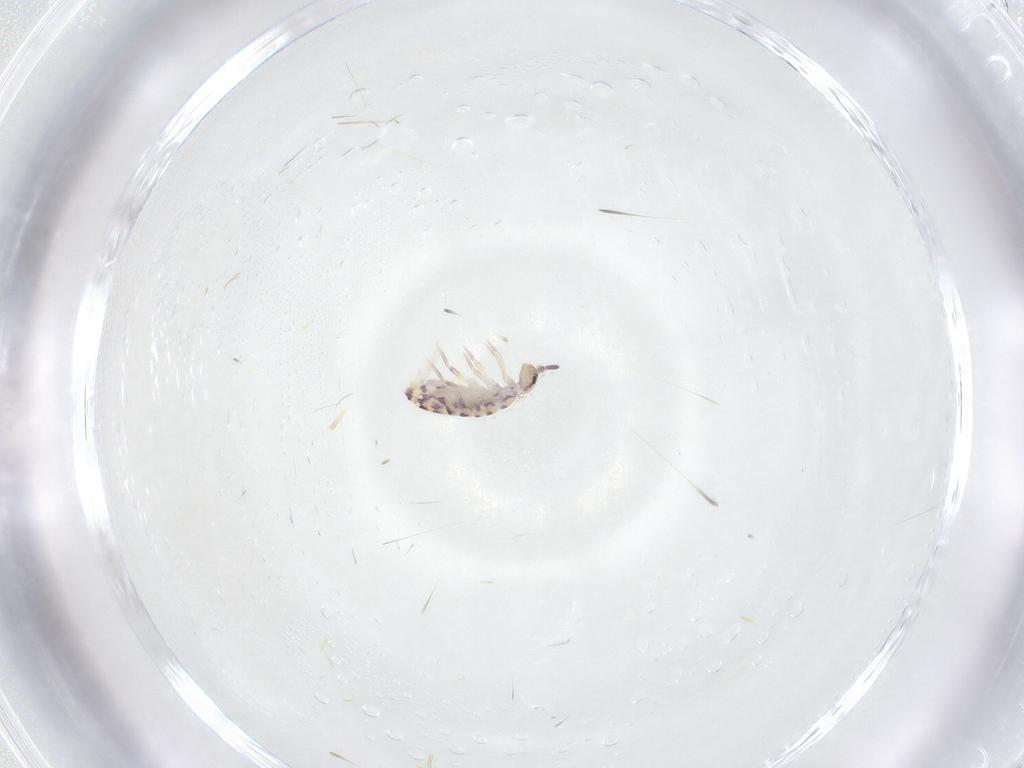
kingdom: Animalia
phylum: Arthropoda
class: Collembola
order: Entomobryomorpha
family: Entomobryidae
